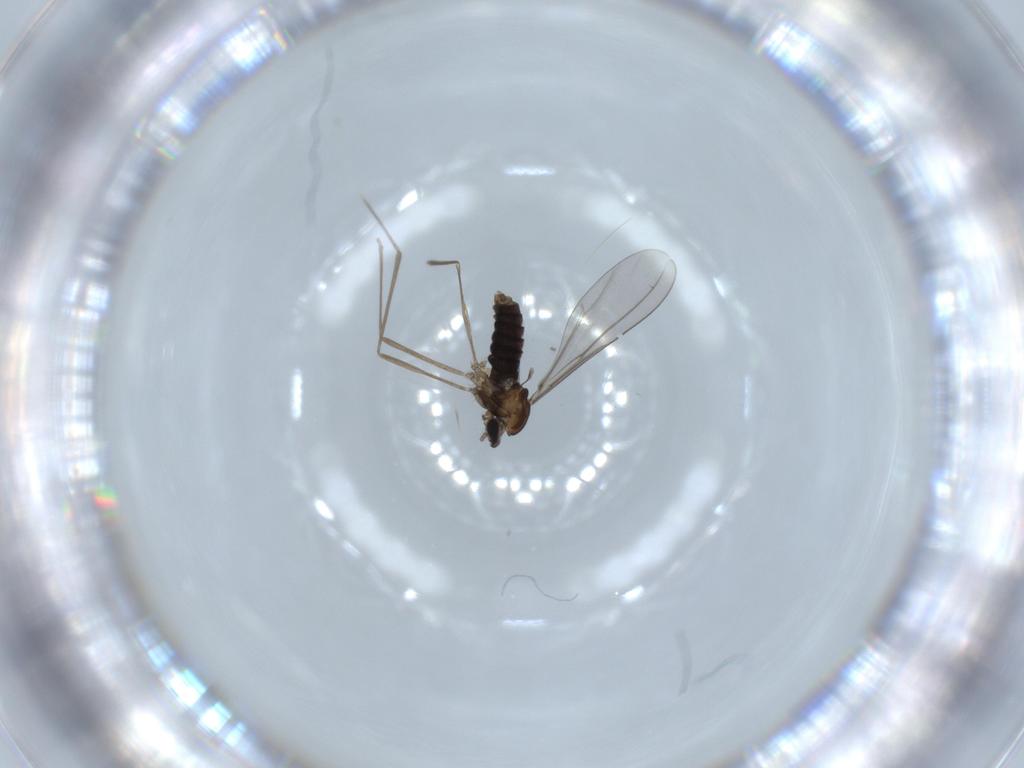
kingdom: Animalia
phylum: Arthropoda
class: Insecta
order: Diptera
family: Cecidomyiidae
